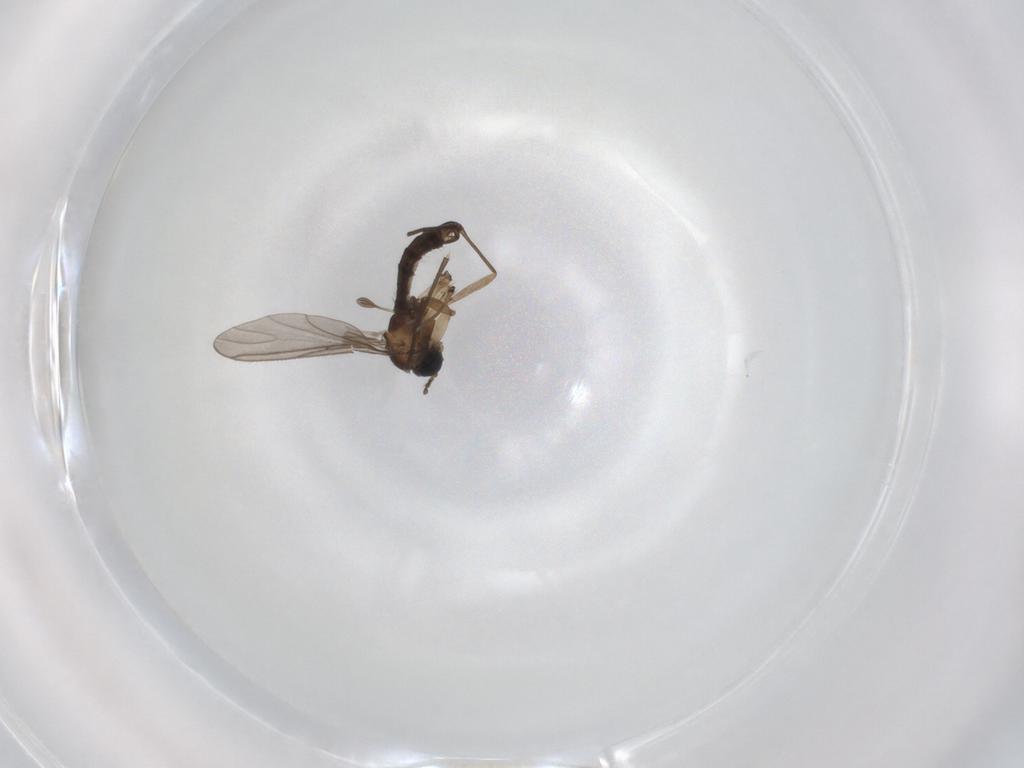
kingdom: Animalia
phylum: Arthropoda
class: Insecta
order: Diptera
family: Sciaridae
